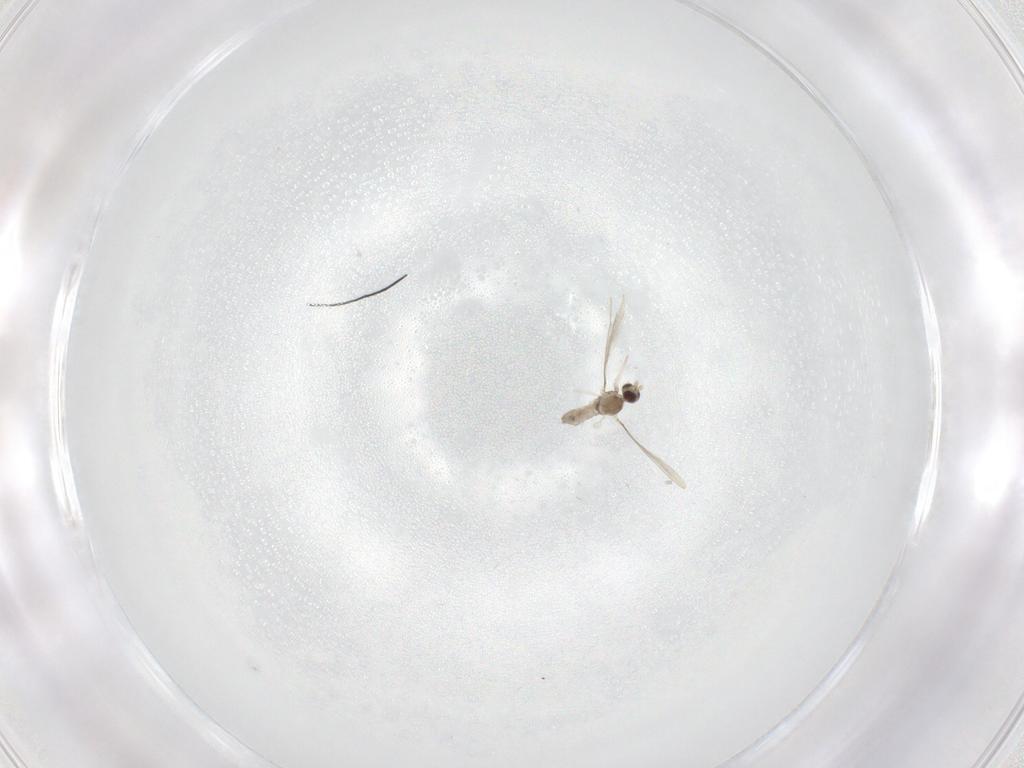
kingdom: Animalia
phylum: Arthropoda
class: Insecta
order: Diptera
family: Cecidomyiidae
